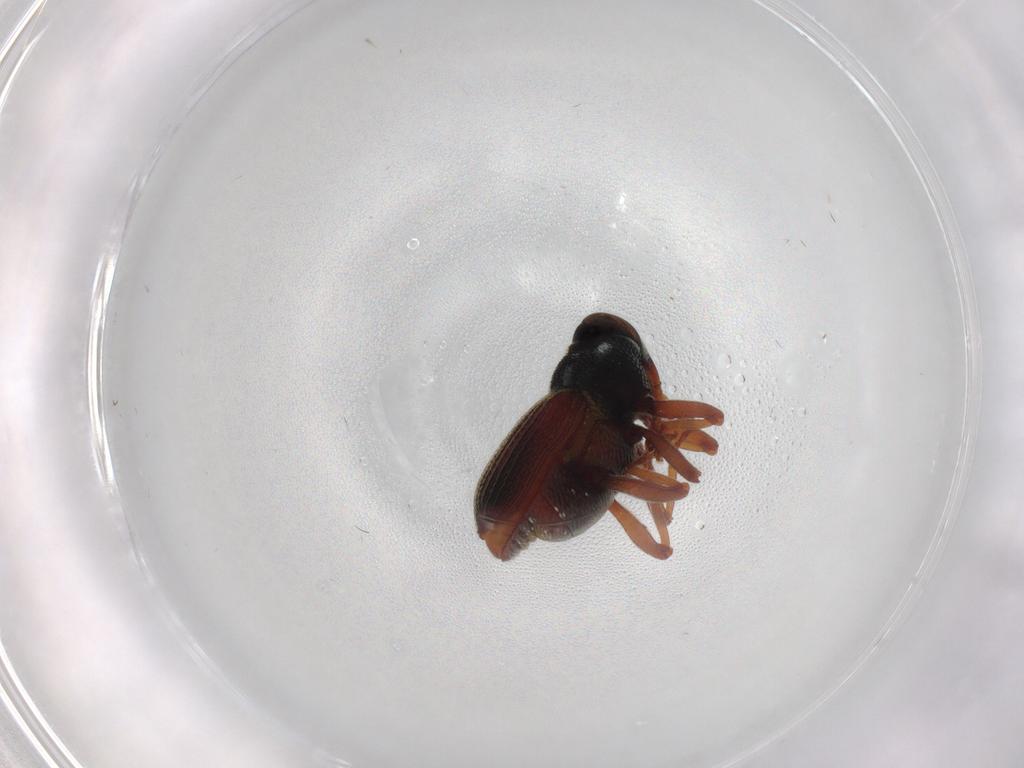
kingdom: Animalia
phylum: Arthropoda
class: Insecta
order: Coleoptera
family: Curculionidae
